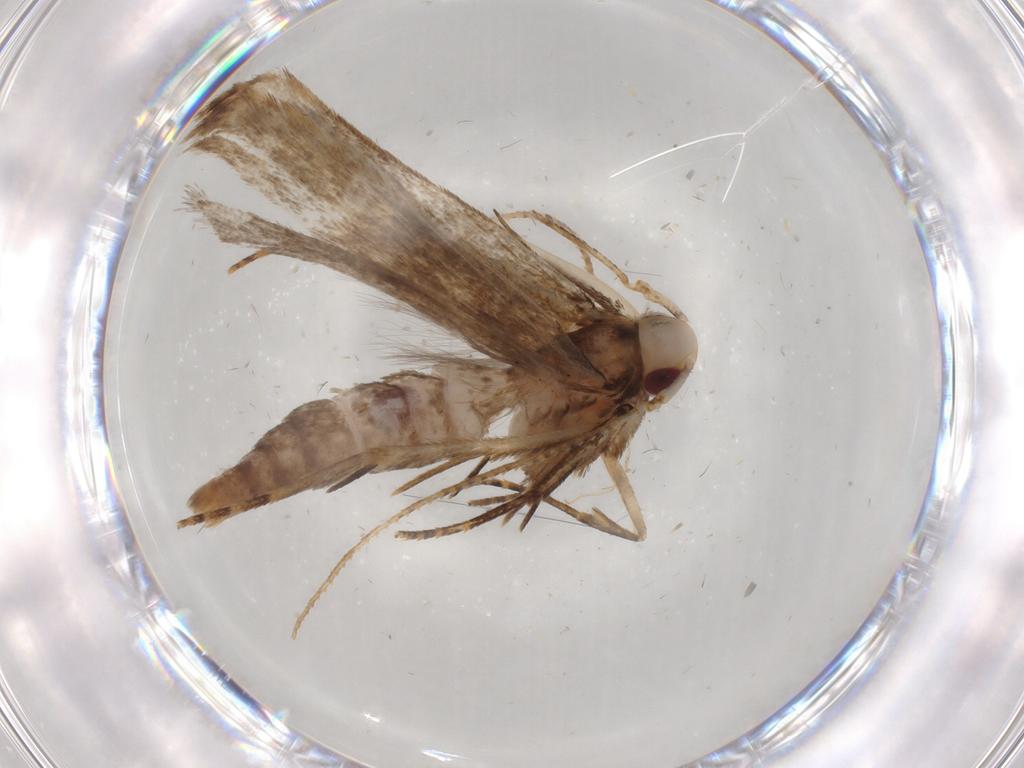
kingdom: Animalia
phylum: Arthropoda
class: Insecta
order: Lepidoptera
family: Gelechiidae
